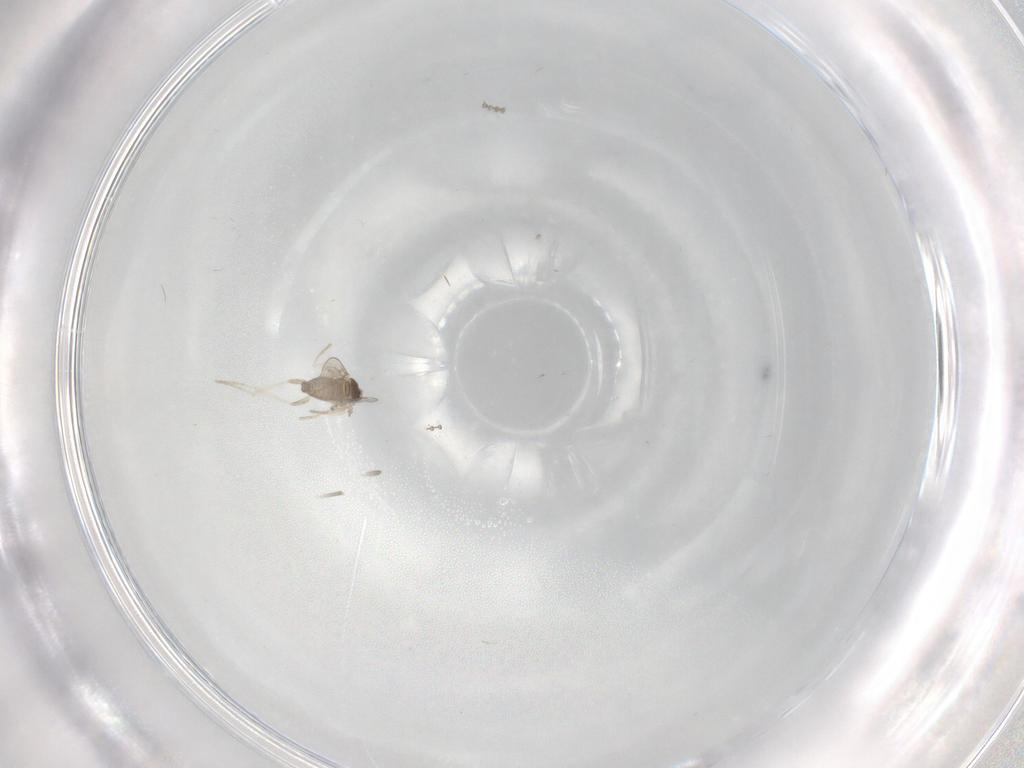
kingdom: Animalia
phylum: Arthropoda
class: Insecta
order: Diptera
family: Cecidomyiidae
